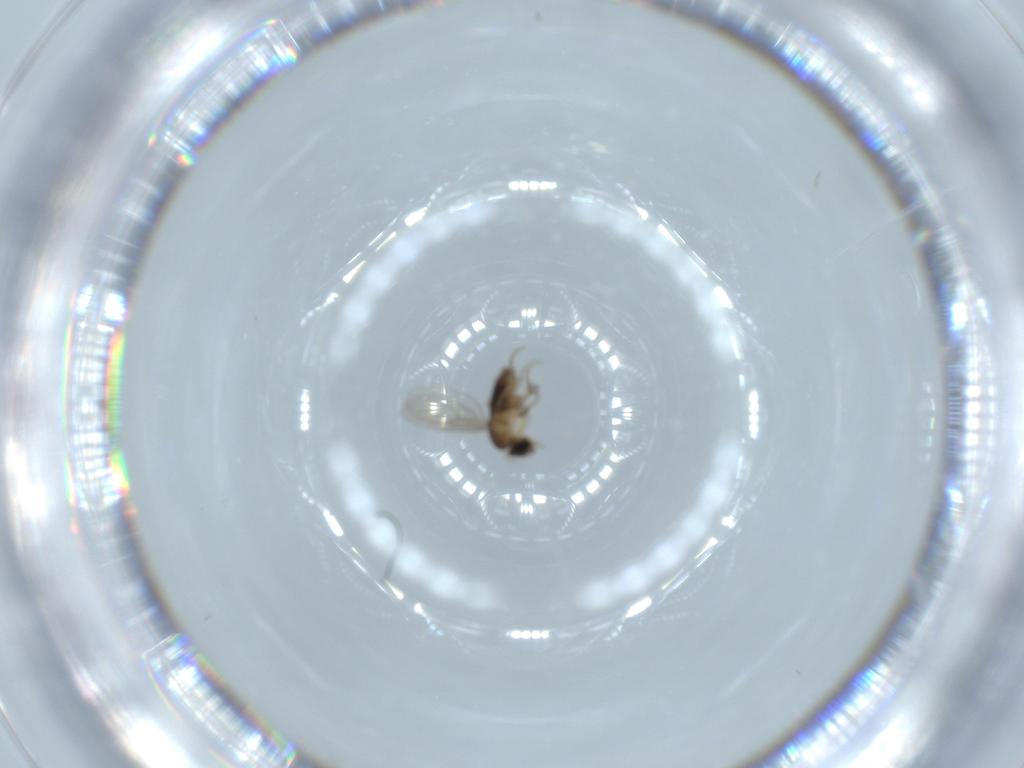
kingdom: Animalia
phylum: Arthropoda
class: Insecta
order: Diptera
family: Phoridae
